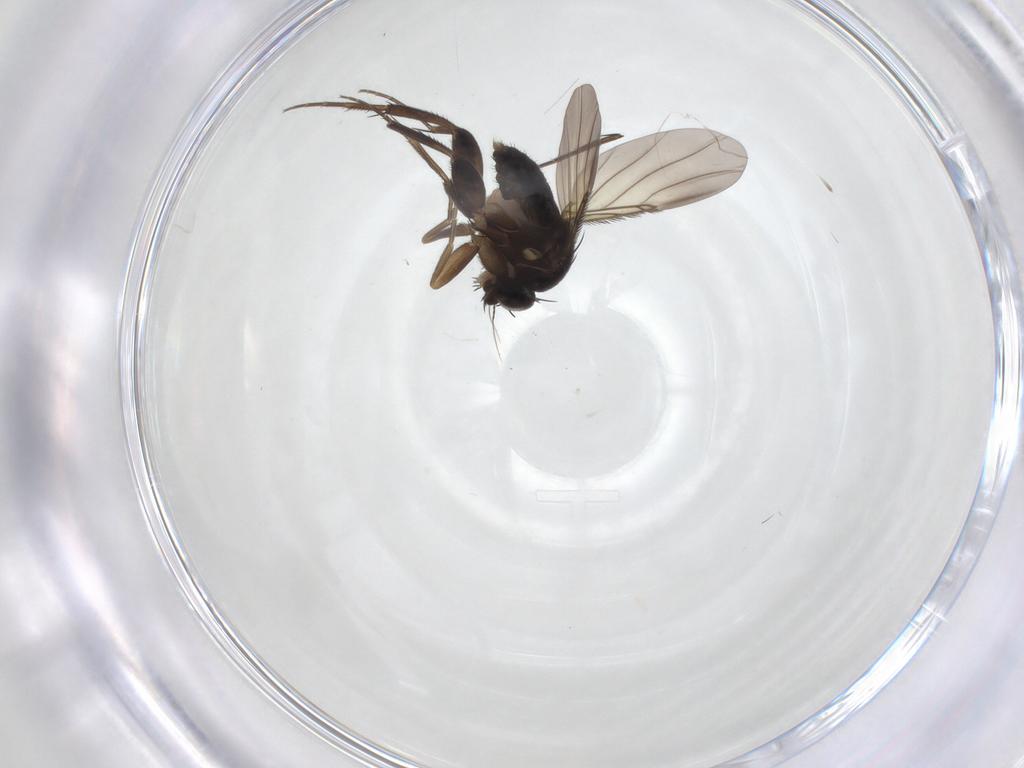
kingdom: Animalia
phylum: Arthropoda
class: Insecta
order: Diptera
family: Phoridae
